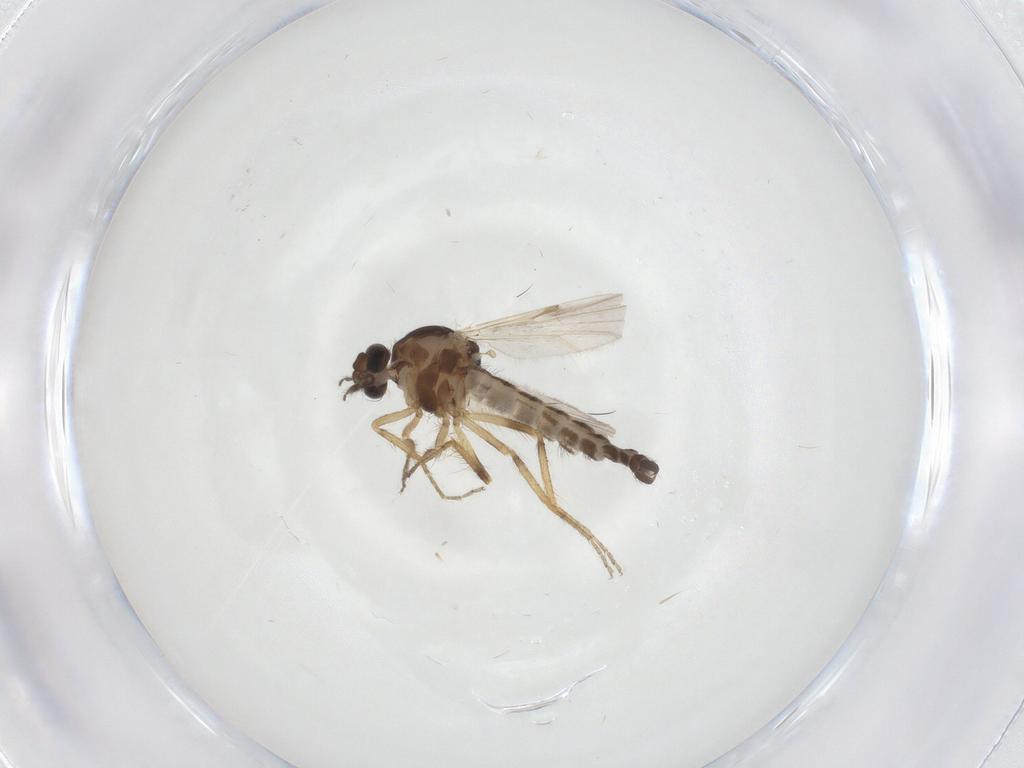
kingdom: Animalia
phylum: Arthropoda
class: Insecta
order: Diptera
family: Ceratopogonidae
